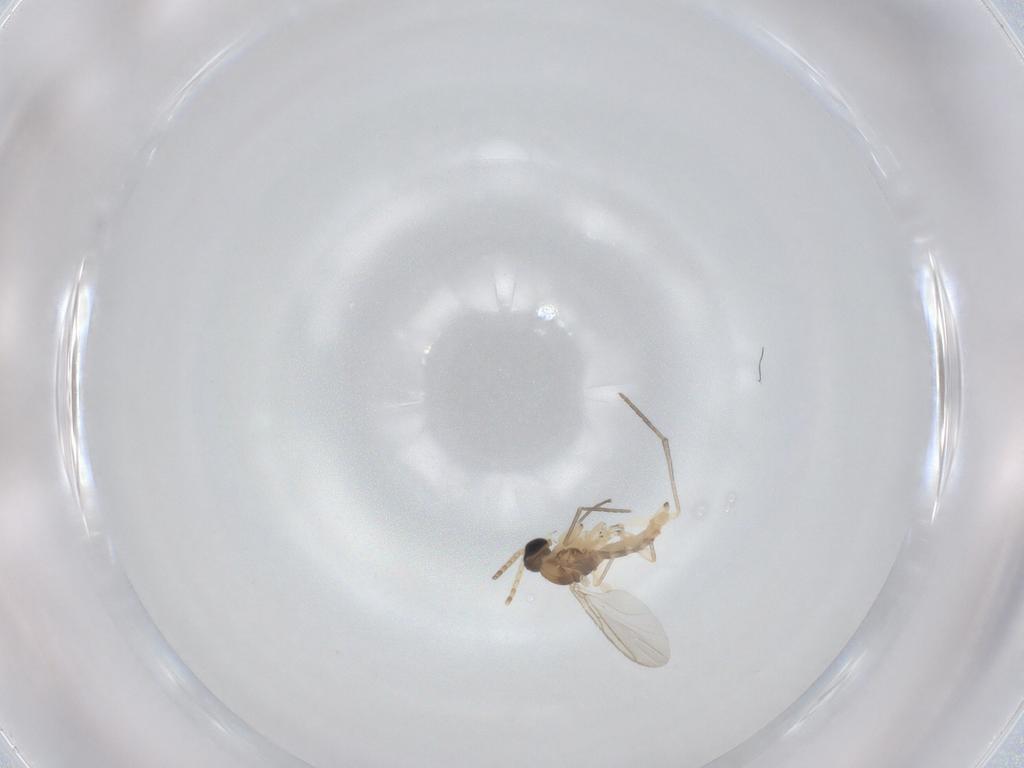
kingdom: Animalia
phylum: Arthropoda
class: Insecta
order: Diptera
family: Sciaridae
